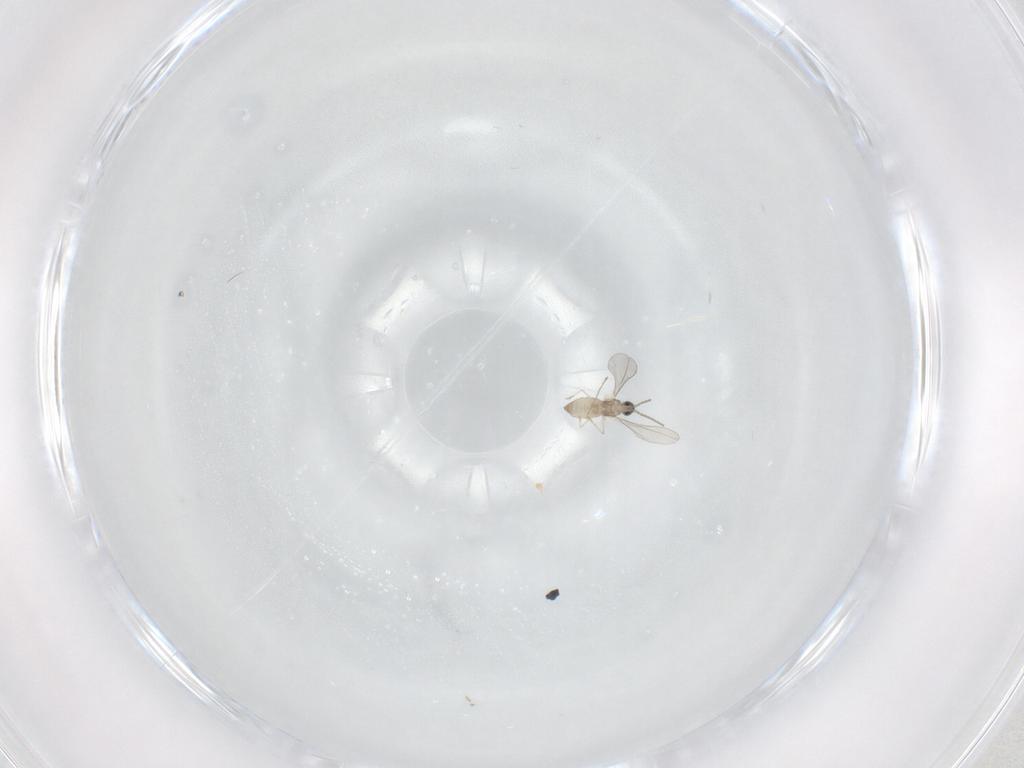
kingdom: Animalia
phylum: Arthropoda
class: Insecta
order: Diptera
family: Cecidomyiidae
